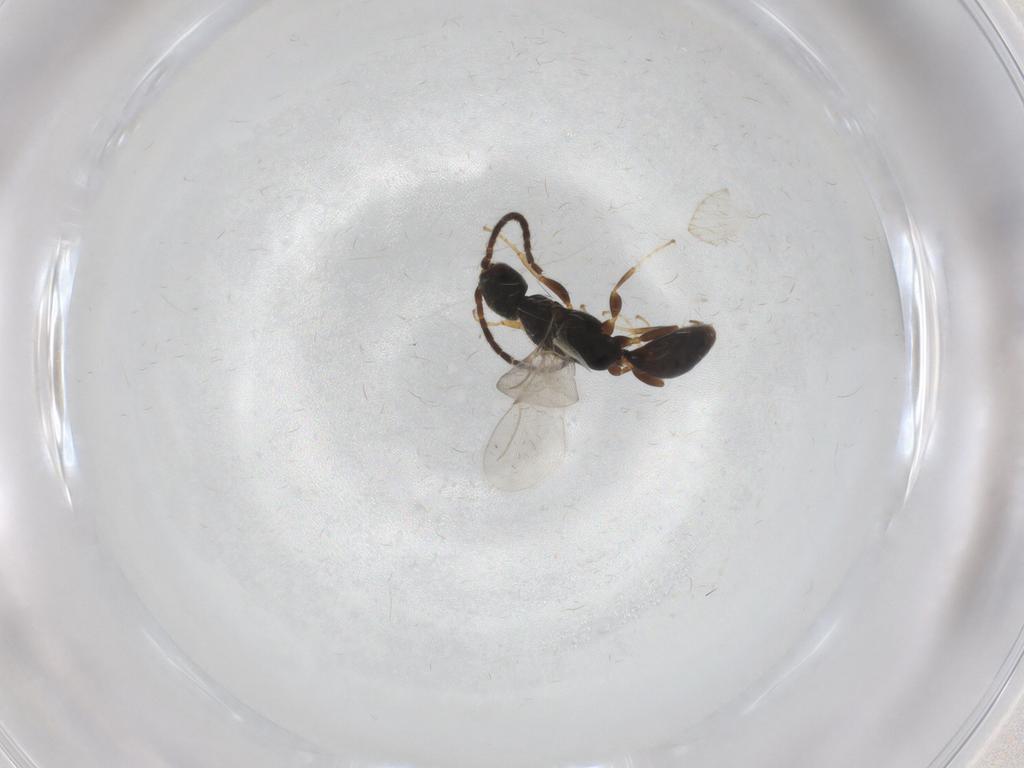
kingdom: Animalia
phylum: Arthropoda
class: Insecta
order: Hymenoptera
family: Bethylidae
